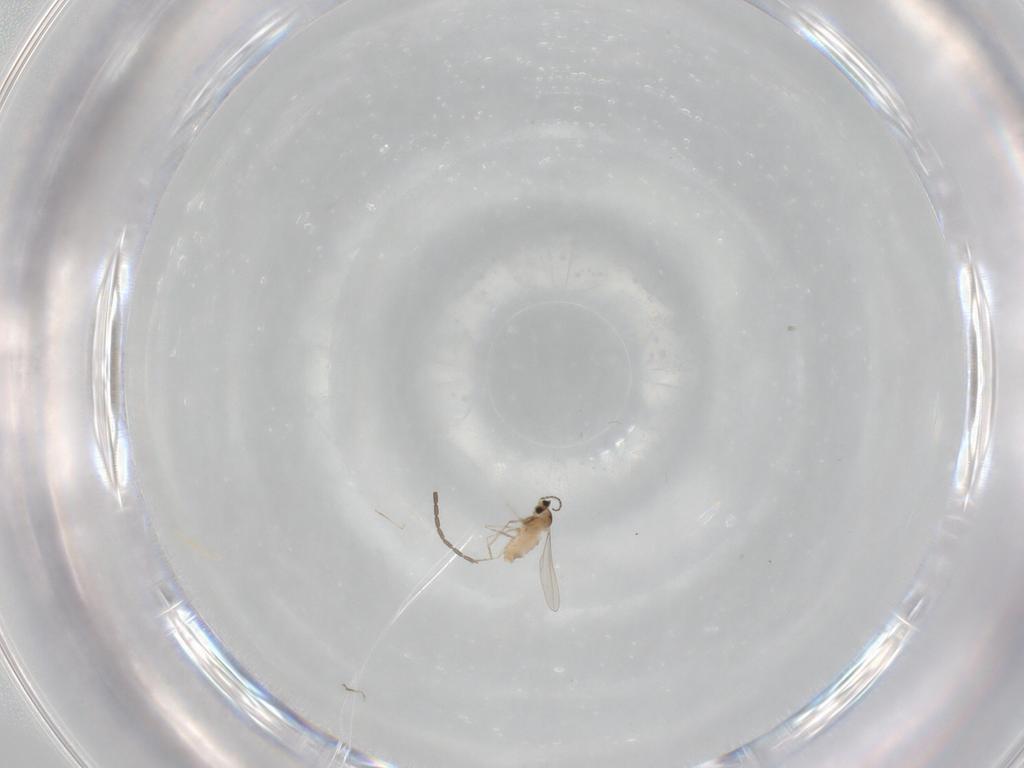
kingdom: Animalia
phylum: Arthropoda
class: Insecta
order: Diptera
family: Cecidomyiidae
